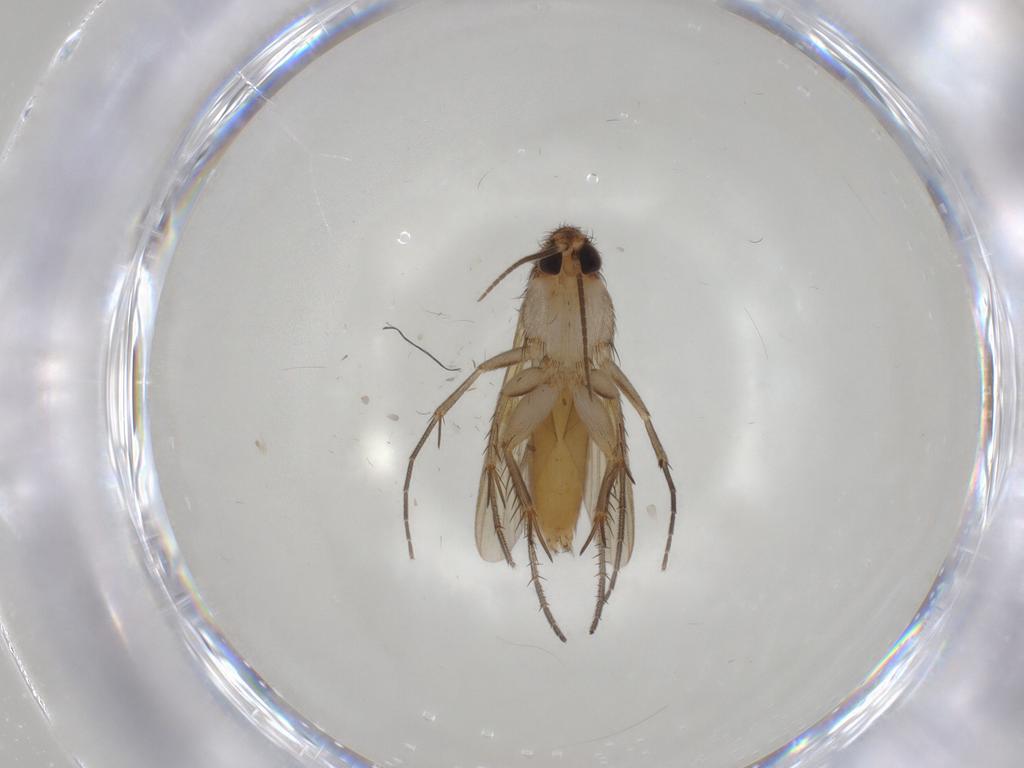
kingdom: Animalia
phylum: Arthropoda
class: Insecta
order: Diptera
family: Mycetophilidae
